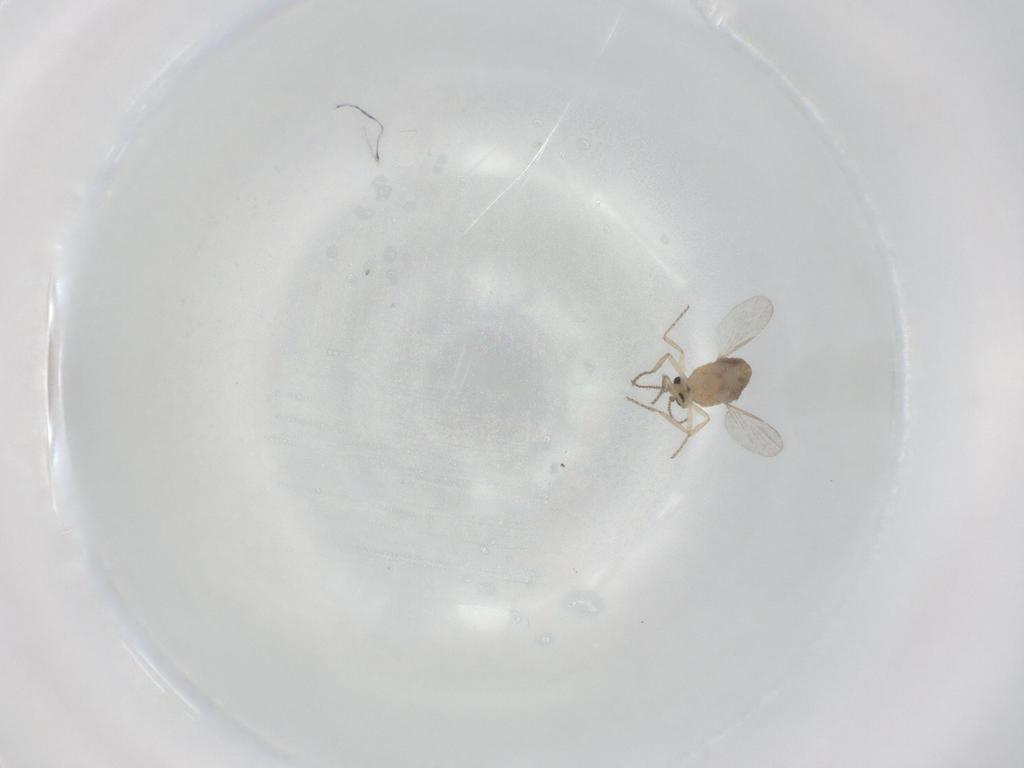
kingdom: Animalia
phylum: Arthropoda
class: Insecta
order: Diptera
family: Ceratopogonidae
